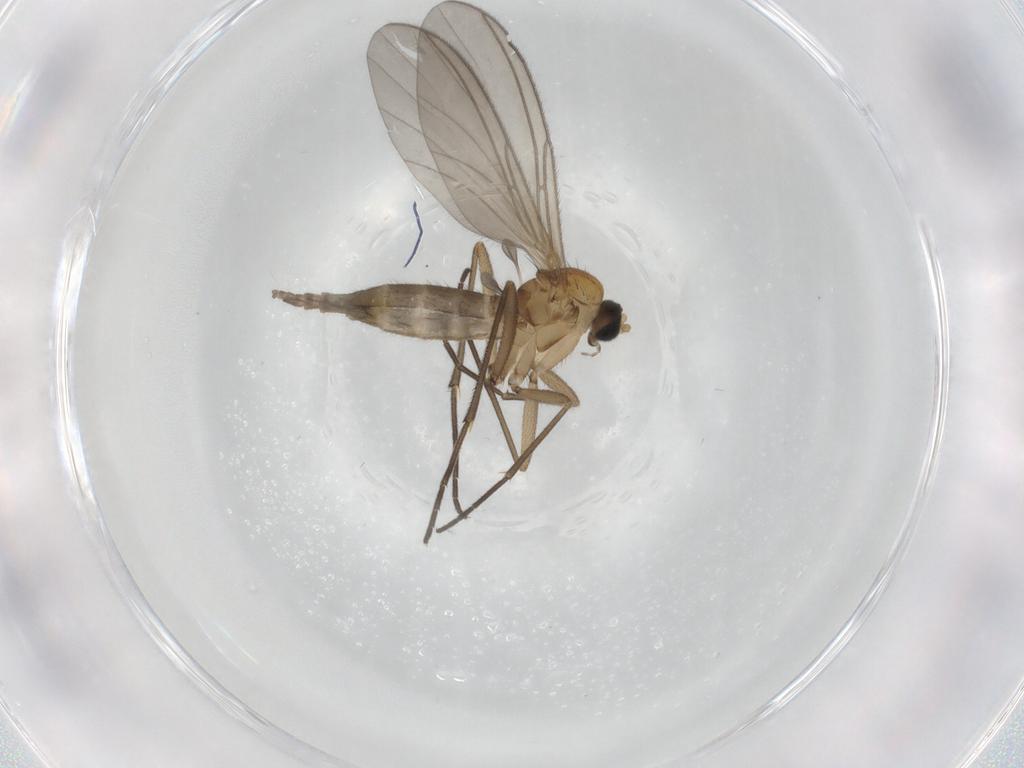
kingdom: Animalia
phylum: Arthropoda
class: Insecta
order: Diptera
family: Sciaridae
